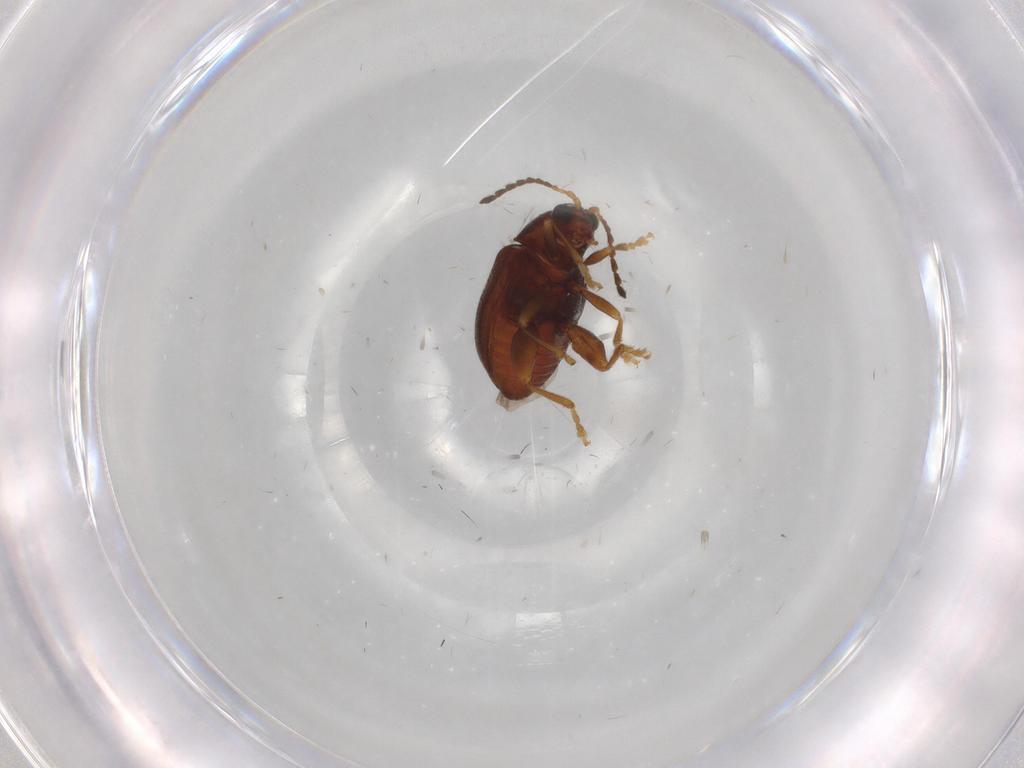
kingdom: Animalia
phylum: Arthropoda
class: Insecta
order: Coleoptera
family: Chrysomelidae
